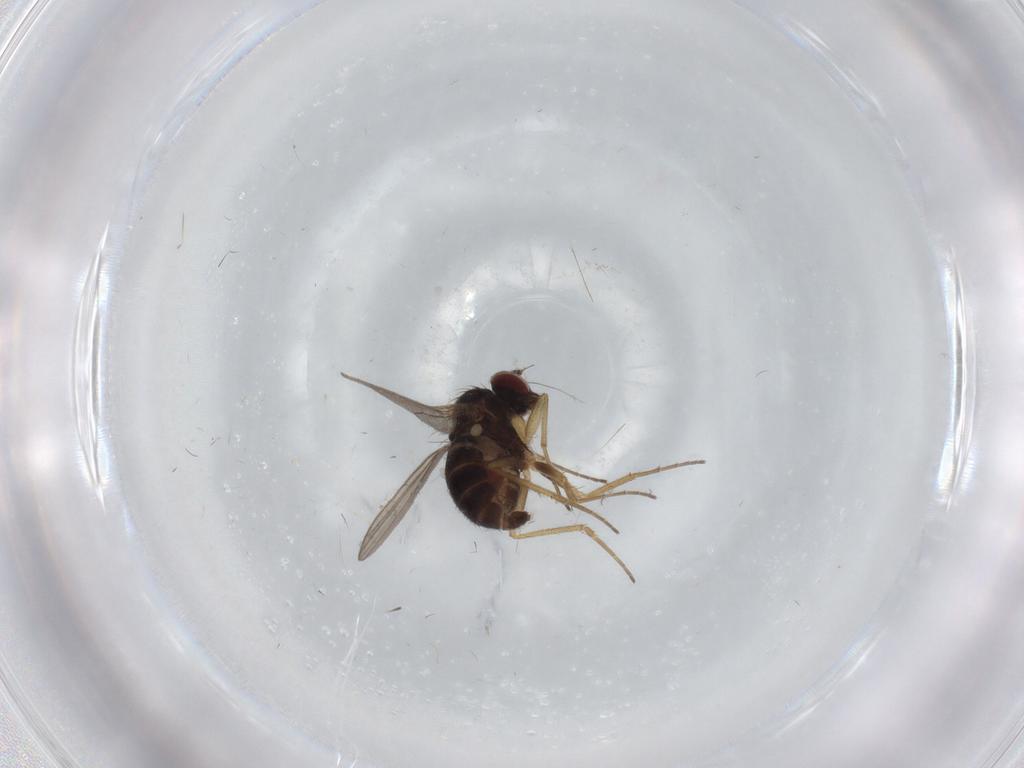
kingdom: Animalia
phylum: Arthropoda
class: Insecta
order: Diptera
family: Dolichopodidae
